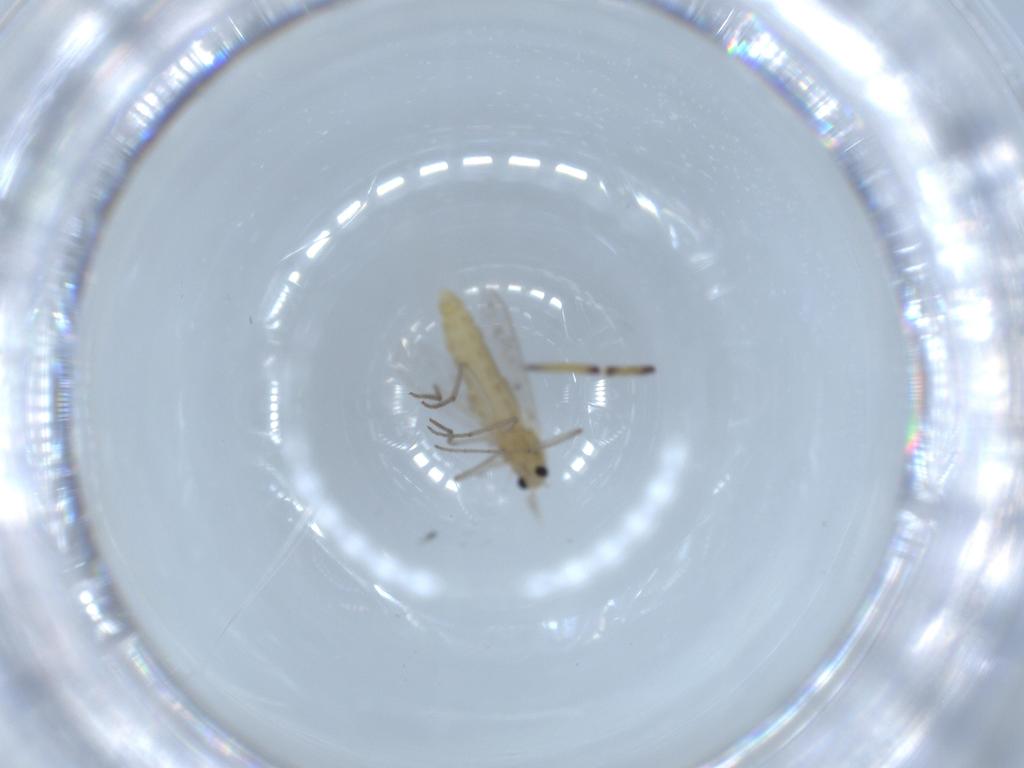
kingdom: Animalia
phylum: Arthropoda
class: Insecta
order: Diptera
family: Chironomidae
